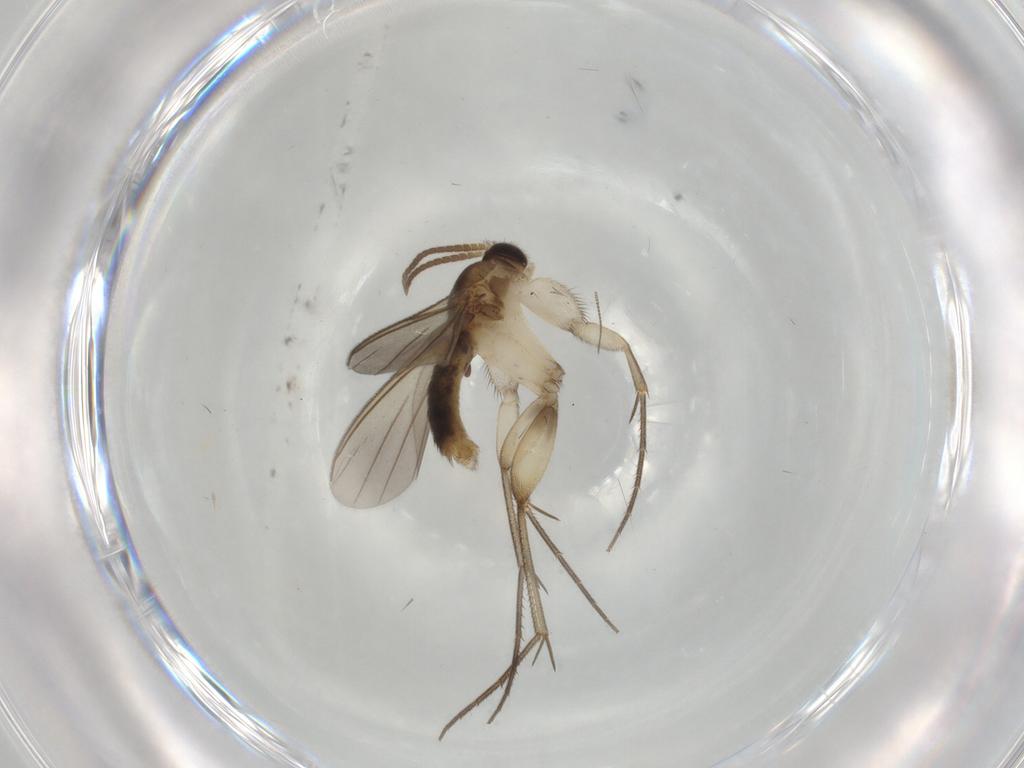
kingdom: Animalia
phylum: Arthropoda
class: Insecta
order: Diptera
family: Mycetophilidae
